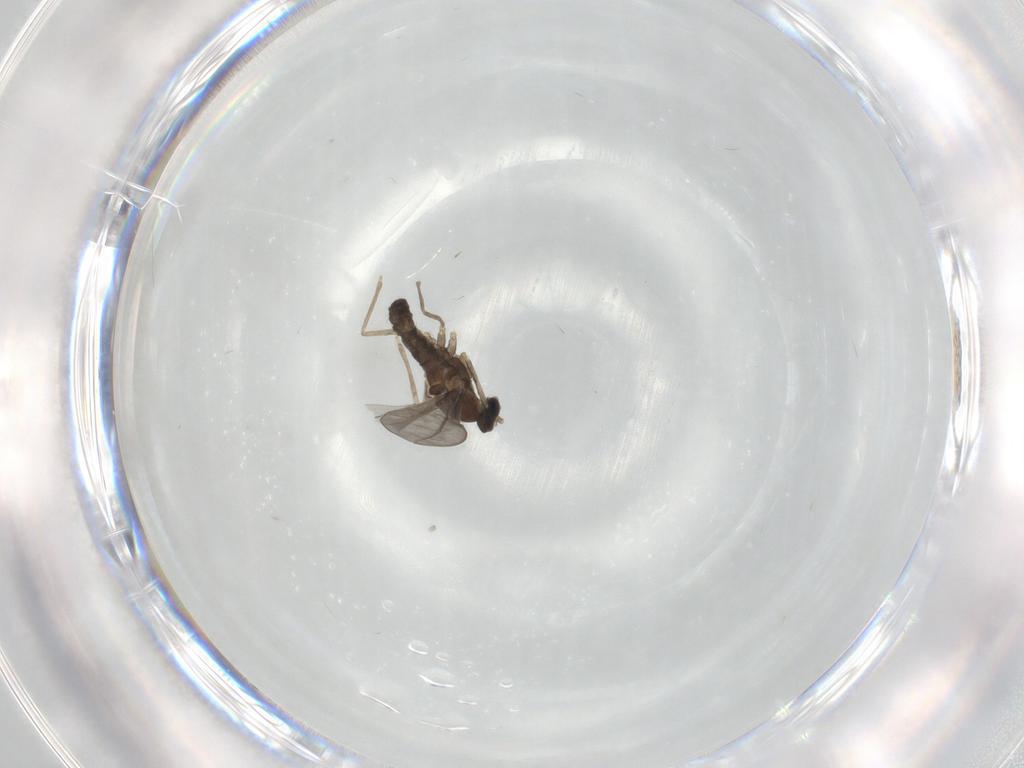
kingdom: Animalia
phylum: Arthropoda
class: Insecta
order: Diptera
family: Cecidomyiidae
